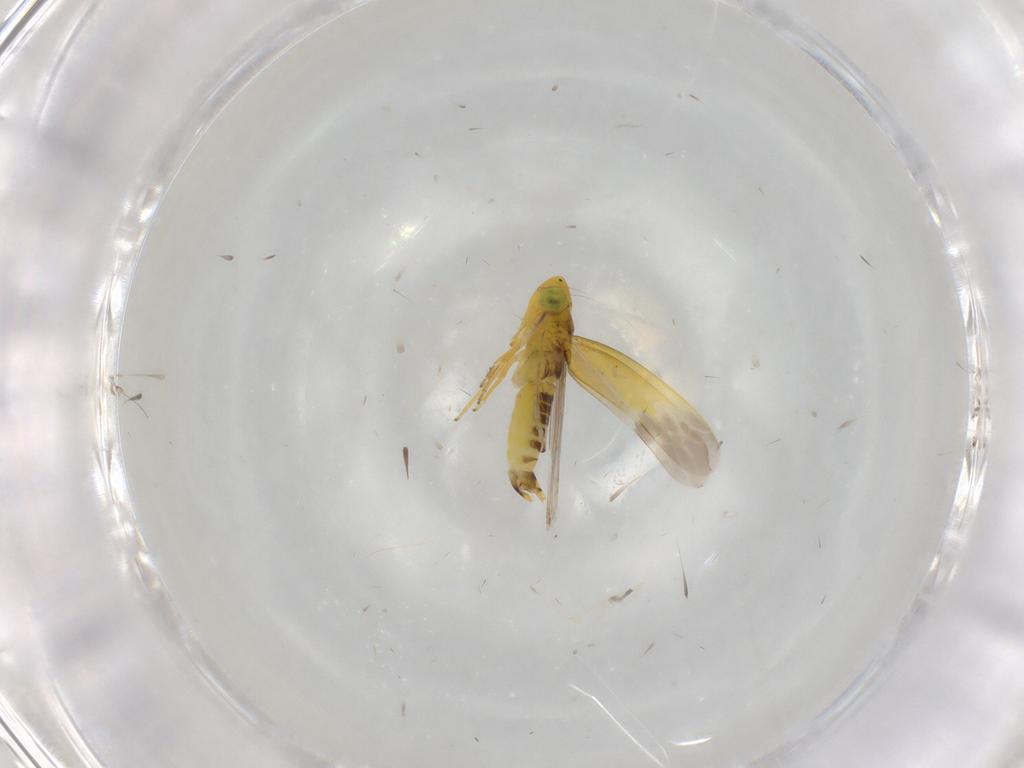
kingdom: Animalia
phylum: Arthropoda
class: Insecta
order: Hemiptera
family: Cicadellidae
